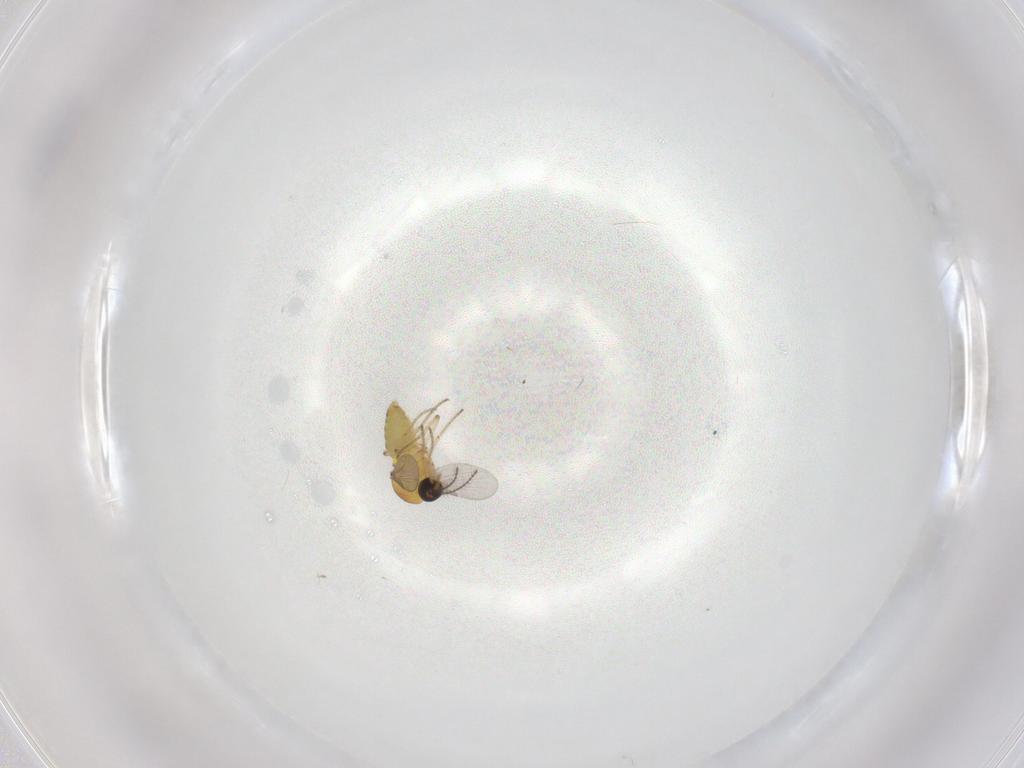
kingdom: Animalia
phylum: Arthropoda
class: Insecta
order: Diptera
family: Ceratopogonidae
